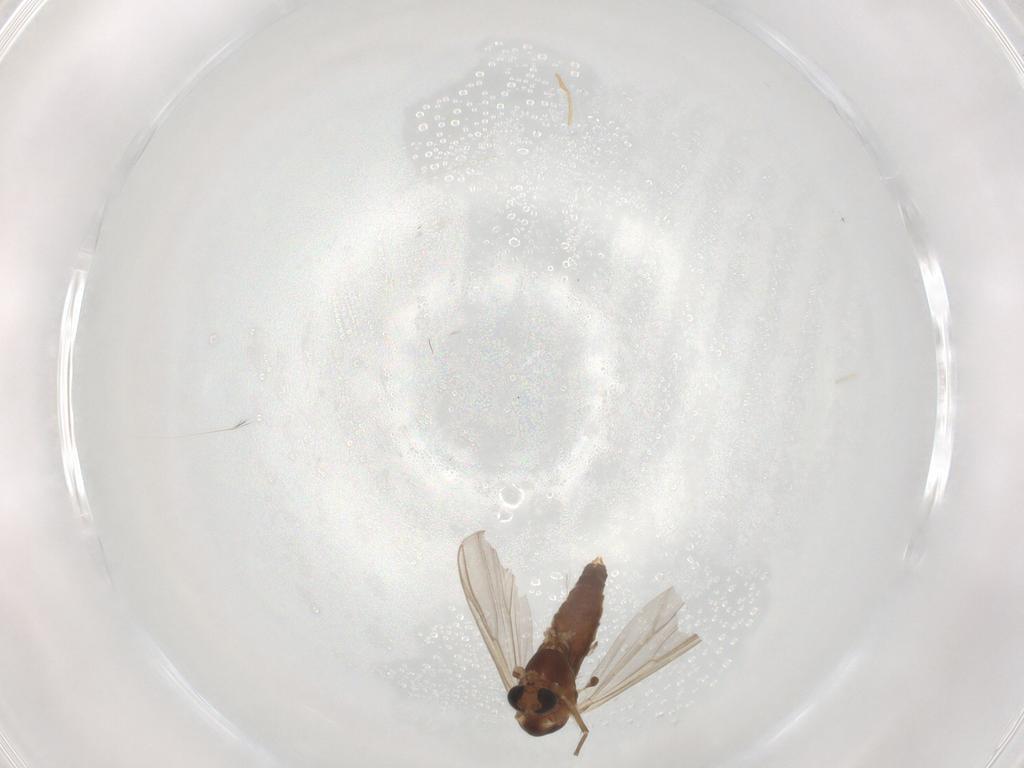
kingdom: Animalia
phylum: Arthropoda
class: Insecta
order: Diptera
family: Chironomidae
